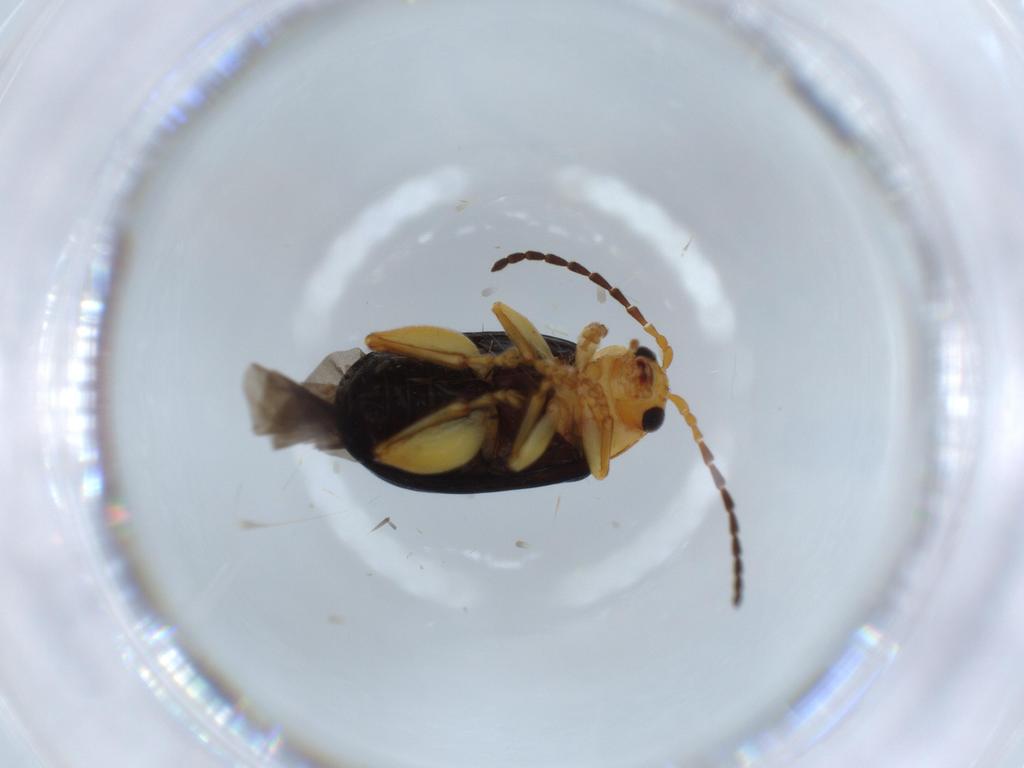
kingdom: Animalia
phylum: Arthropoda
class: Insecta
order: Coleoptera
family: Chrysomelidae
